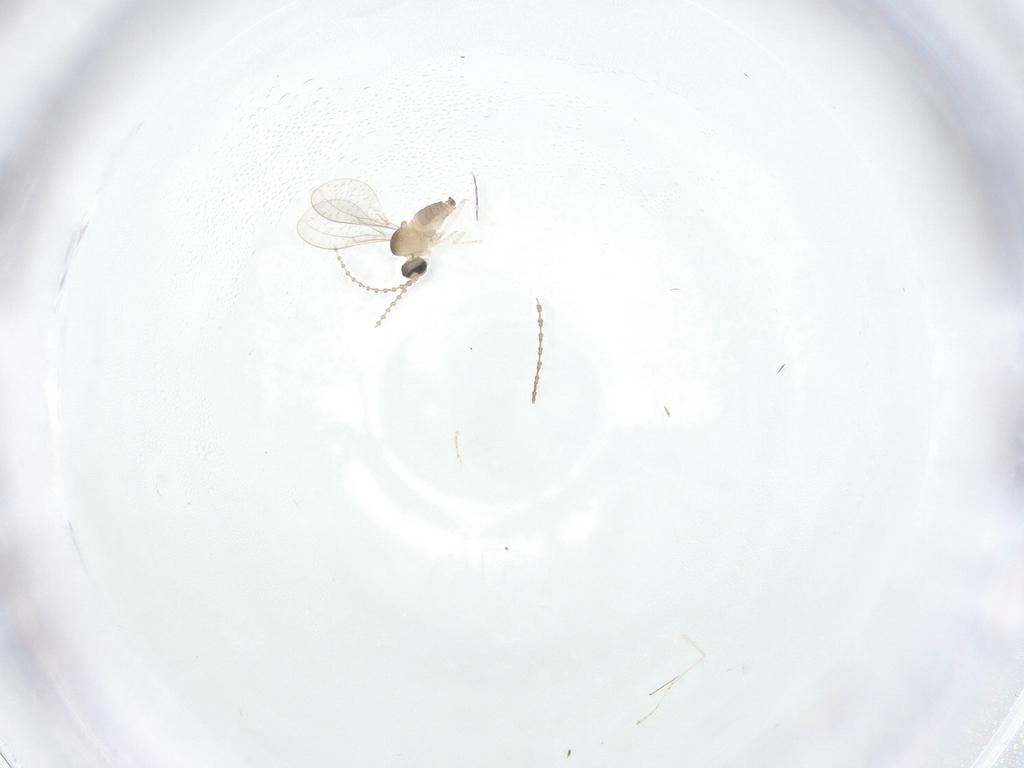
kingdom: Animalia
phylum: Arthropoda
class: Insecta
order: Diptera
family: Cecidomyiidae
